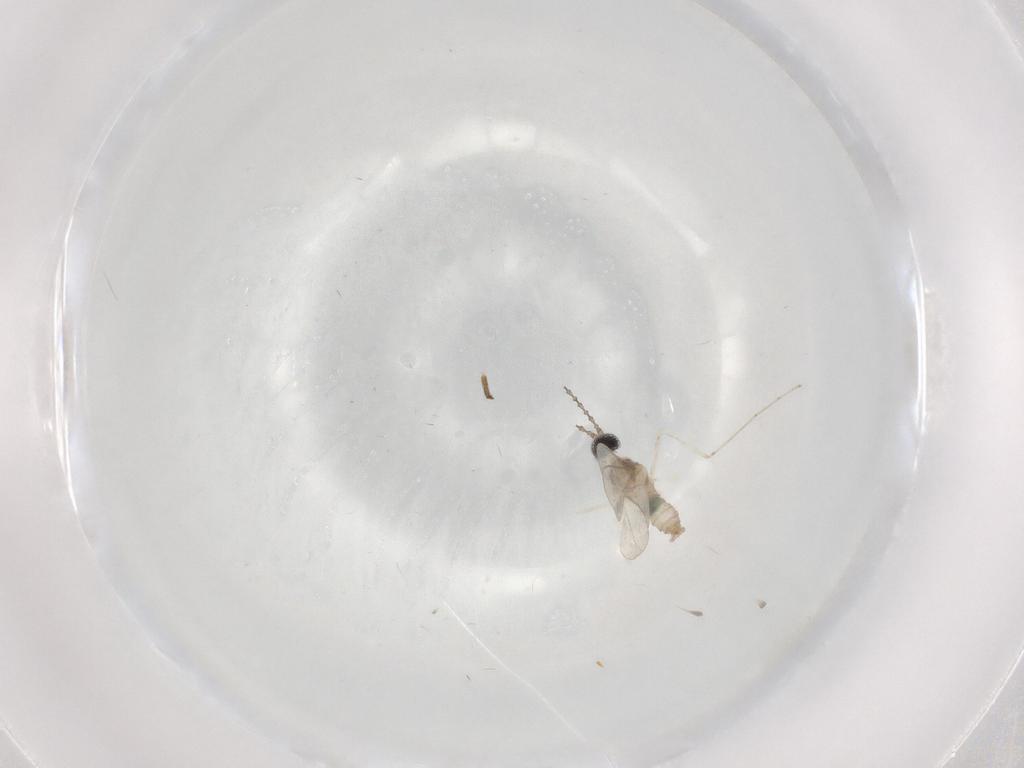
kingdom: Animalia
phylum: Arthropoda
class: Insecta
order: Diptera
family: Cecidomyiidae
